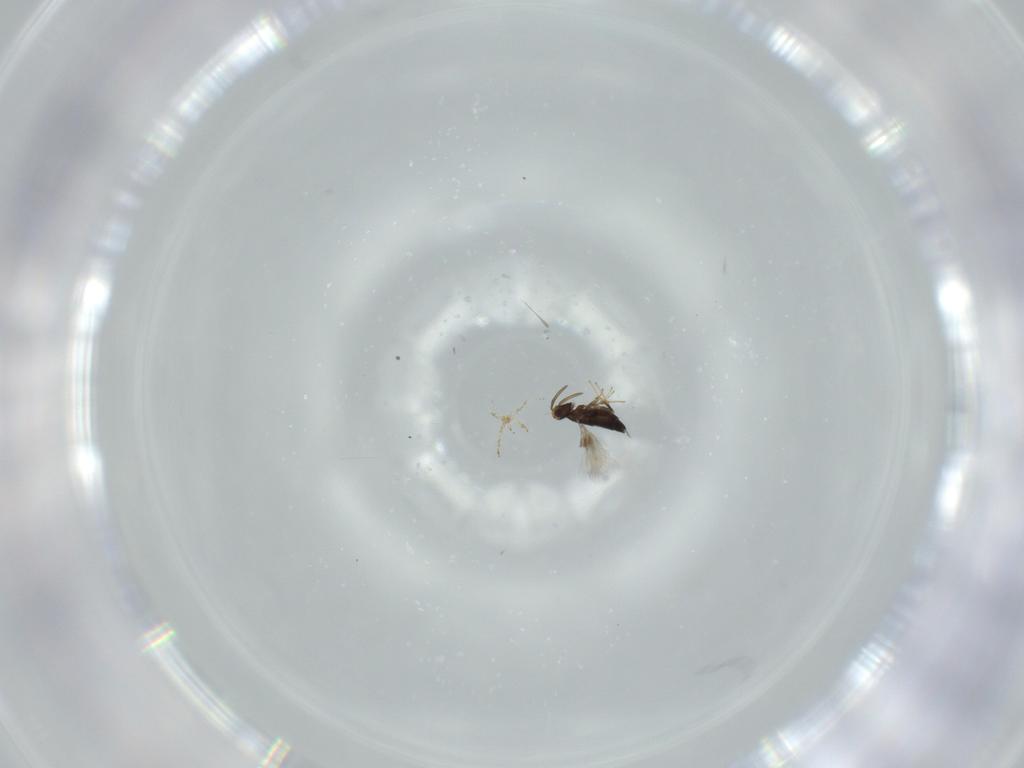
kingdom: Animalia
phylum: Arthropoda
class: Insecta
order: Hymenoptera
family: Signiphoridae
